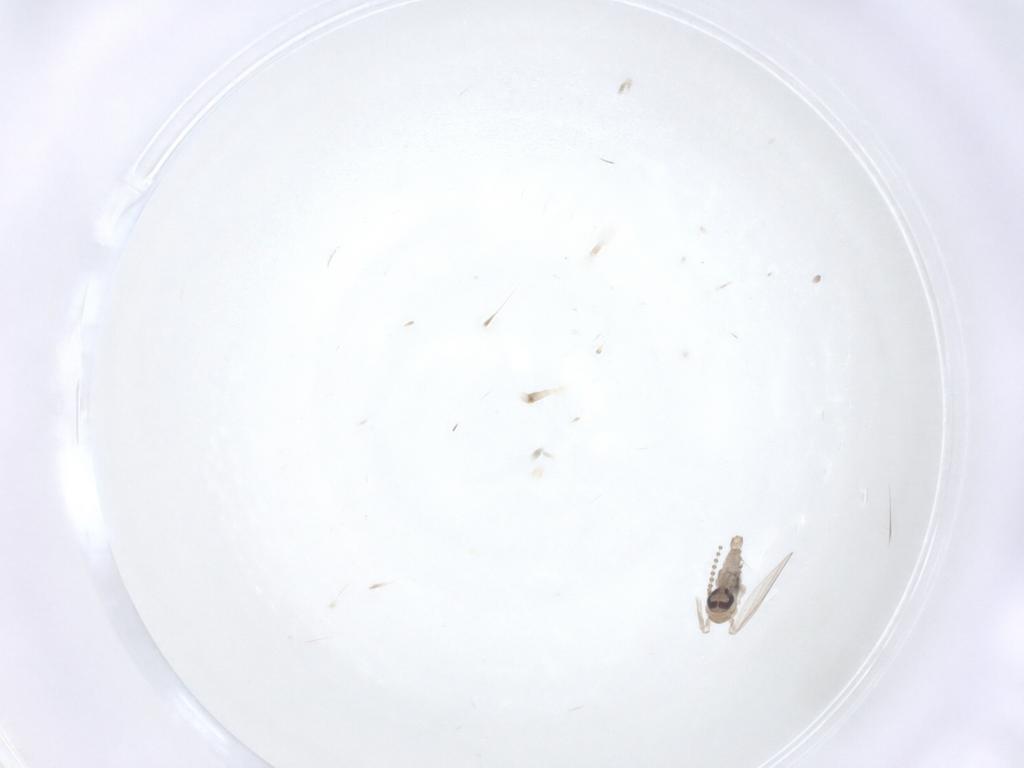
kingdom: Animalia
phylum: Arthropoda
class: Insecta
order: Diptera
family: Psychodidae
